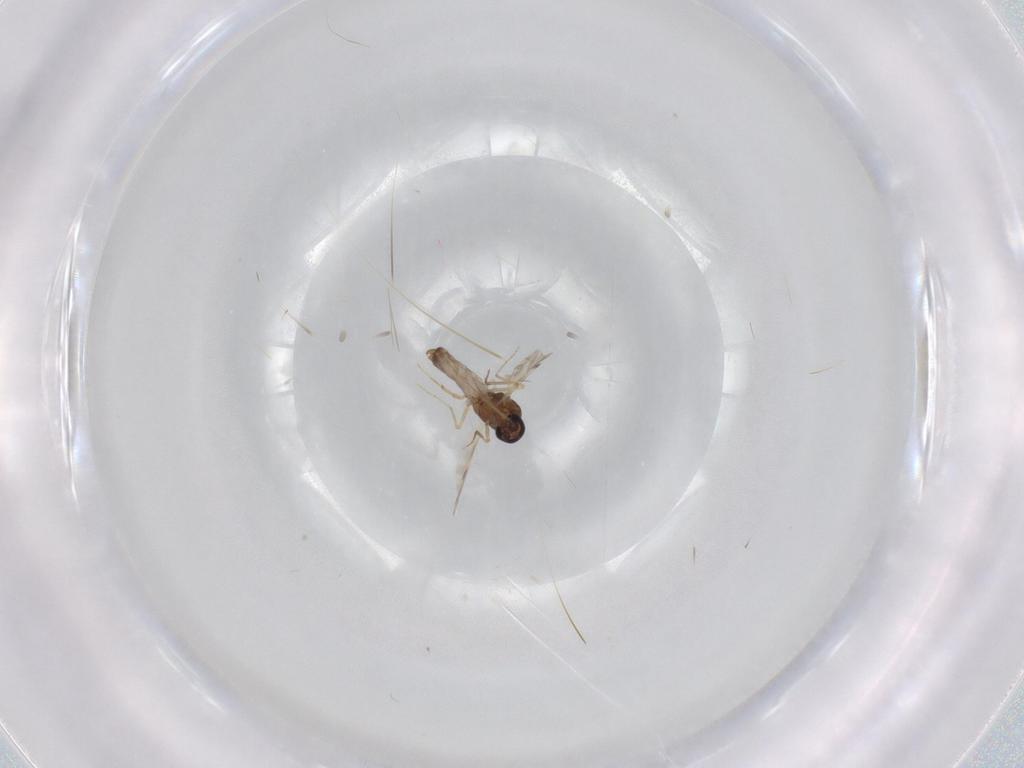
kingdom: Animalia
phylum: Arthropoda
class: Insecta
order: Diptera
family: Ceratopogonidae
